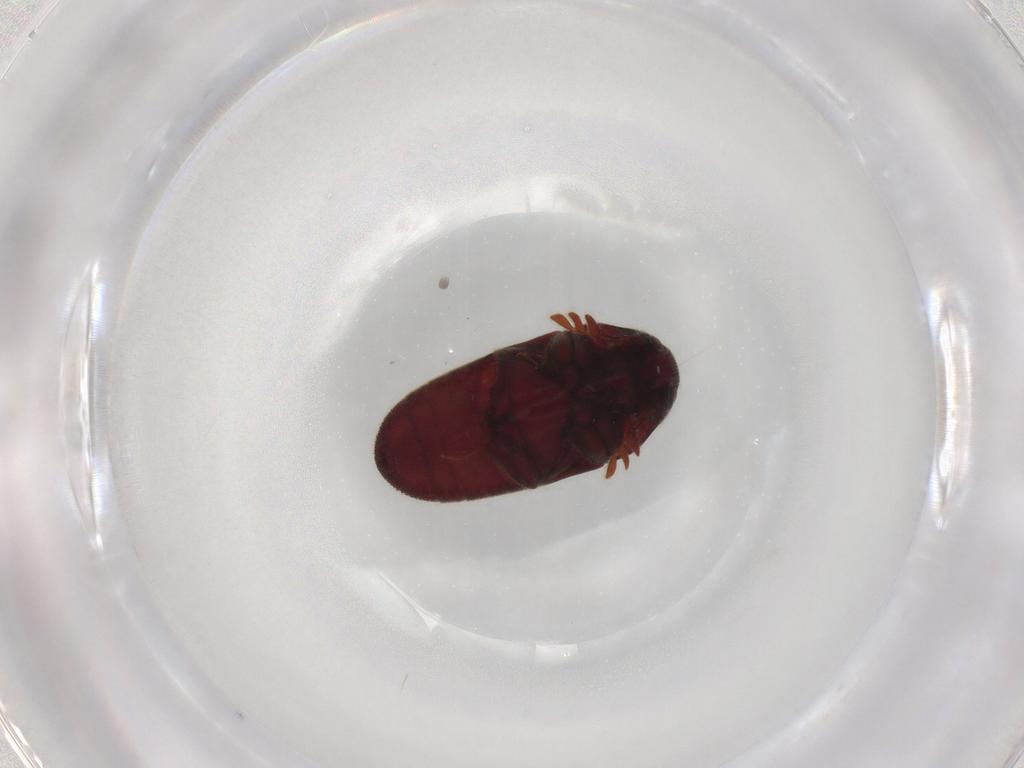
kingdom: Animalia
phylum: Arthropoda
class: Insecta
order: Coleoptera
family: Throscidae
